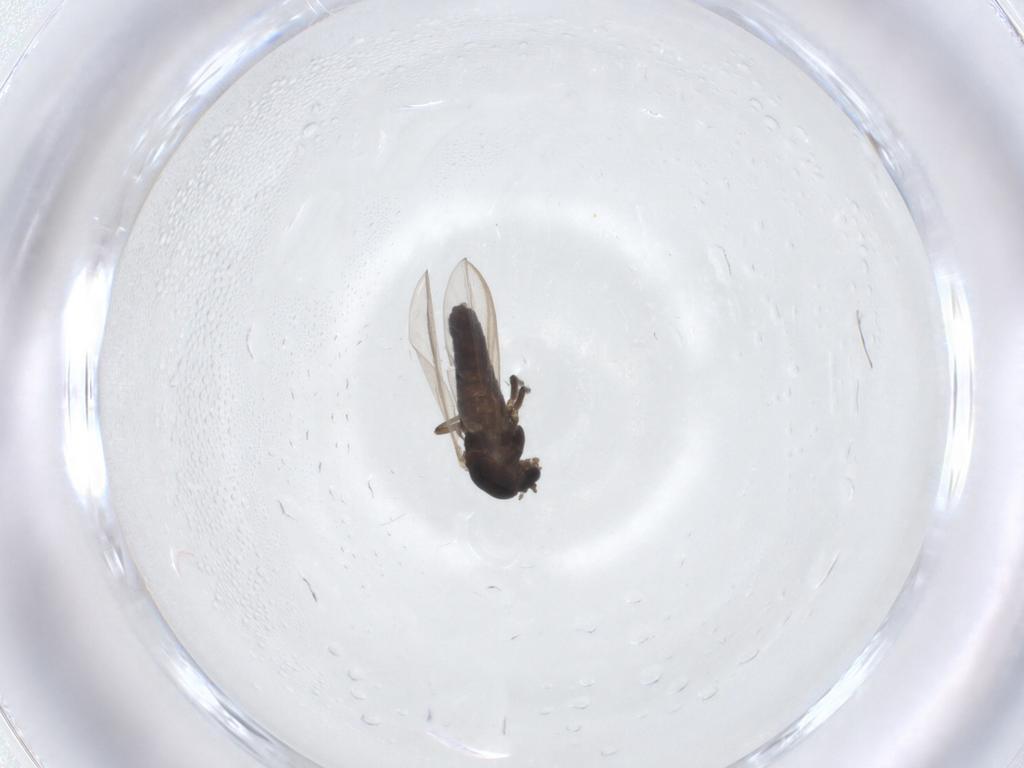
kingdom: Animalia
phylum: Arthropoda
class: Insecta
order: Diptera
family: Chironomidae
